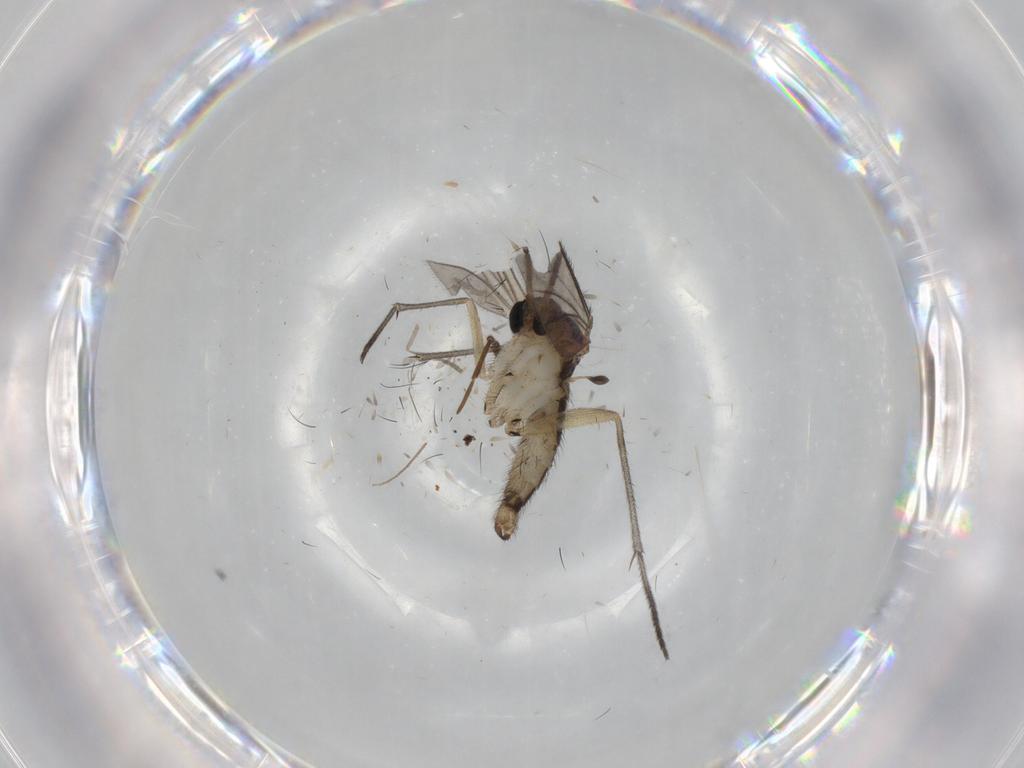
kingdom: Animalia
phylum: Arthropoda
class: Insecta
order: Diptera
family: Sciaridae
